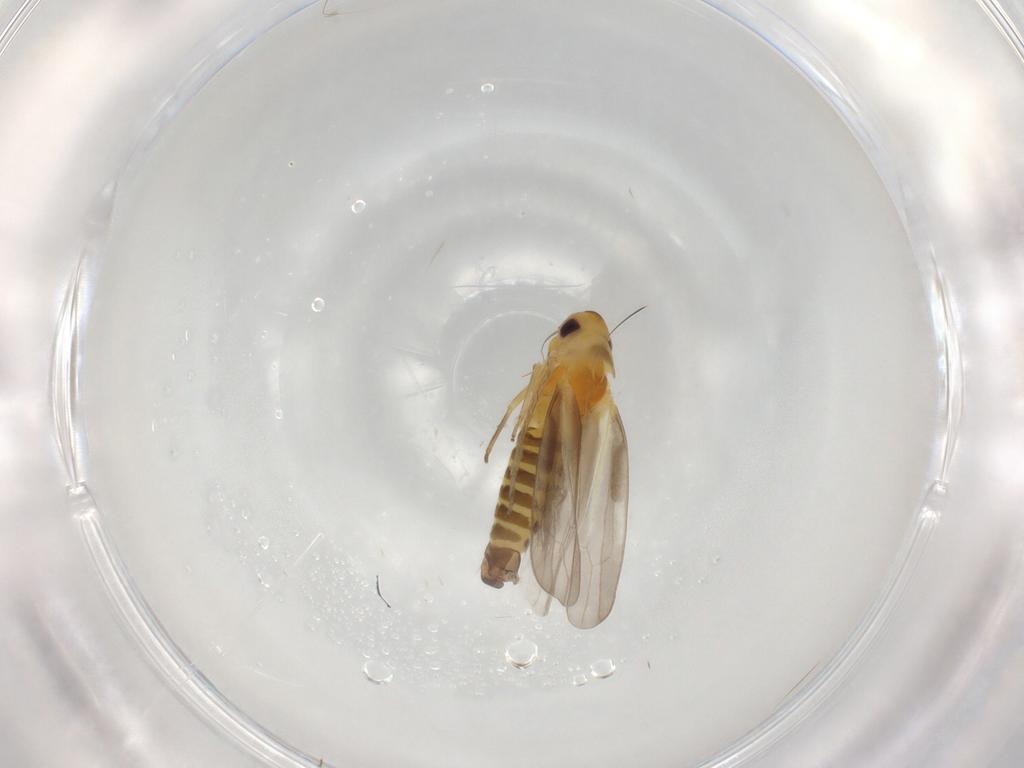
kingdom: Animalia
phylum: Arthropoda
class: Insecta
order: Hemiptera
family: Cicadellidae
